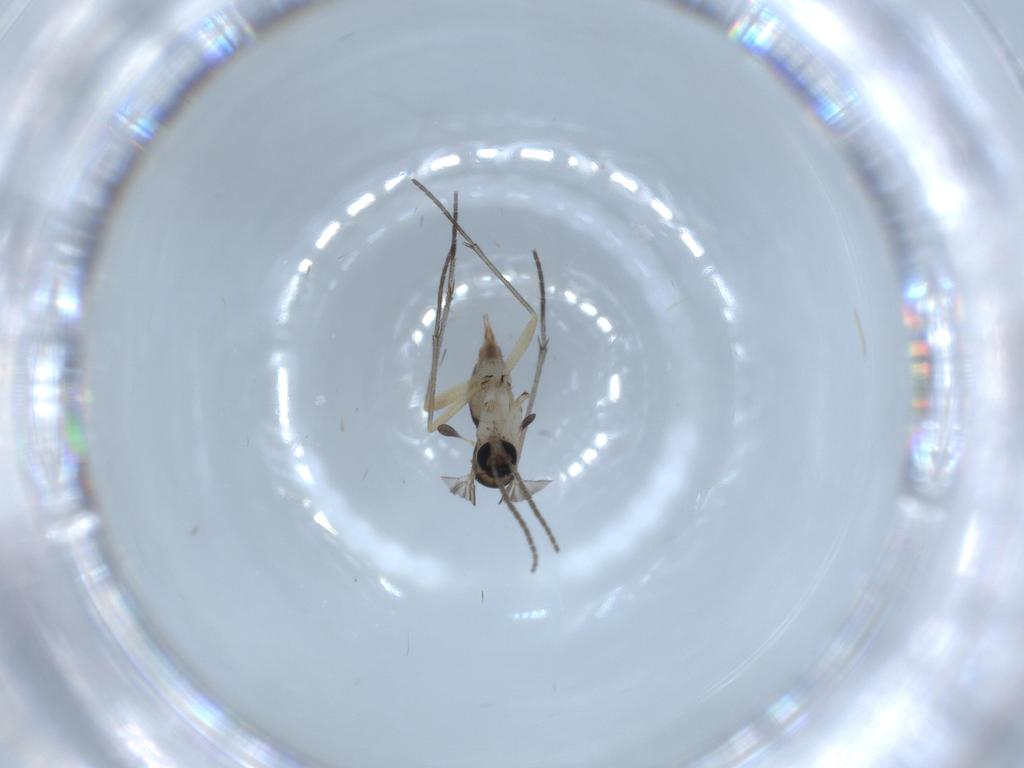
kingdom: Animalia
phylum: Arthropoda
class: Insecta
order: Diptera
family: Sciaridae
